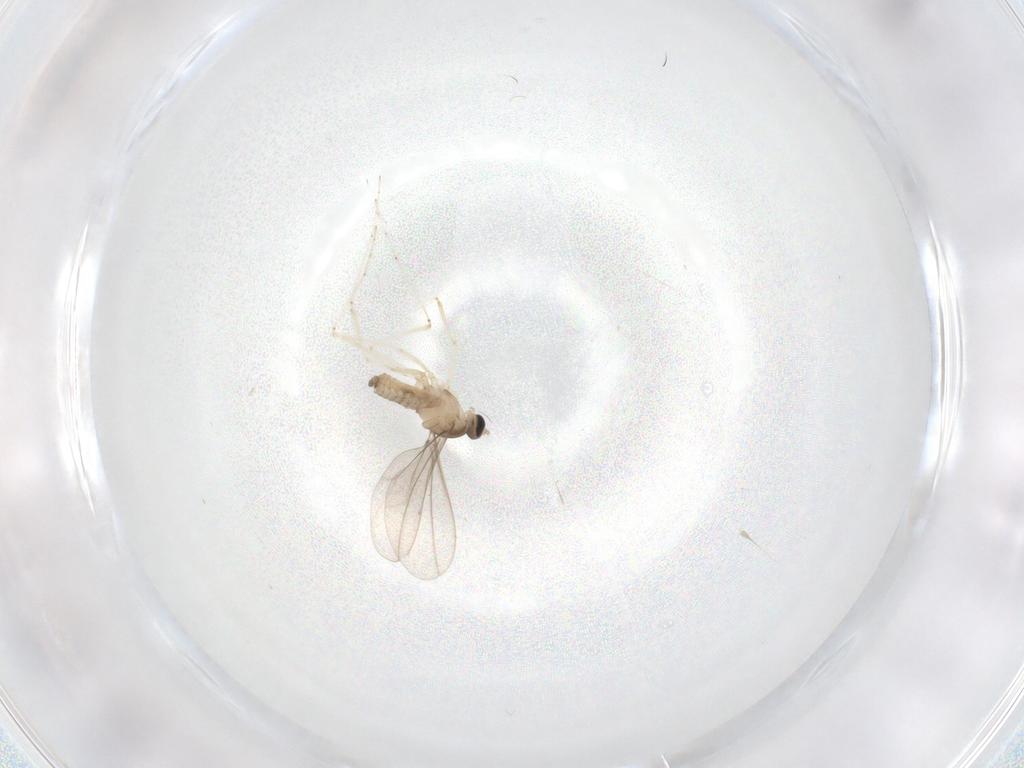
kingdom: Animalia
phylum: Arthropoda
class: Insecta
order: Diptera
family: Cecidomyiidae
